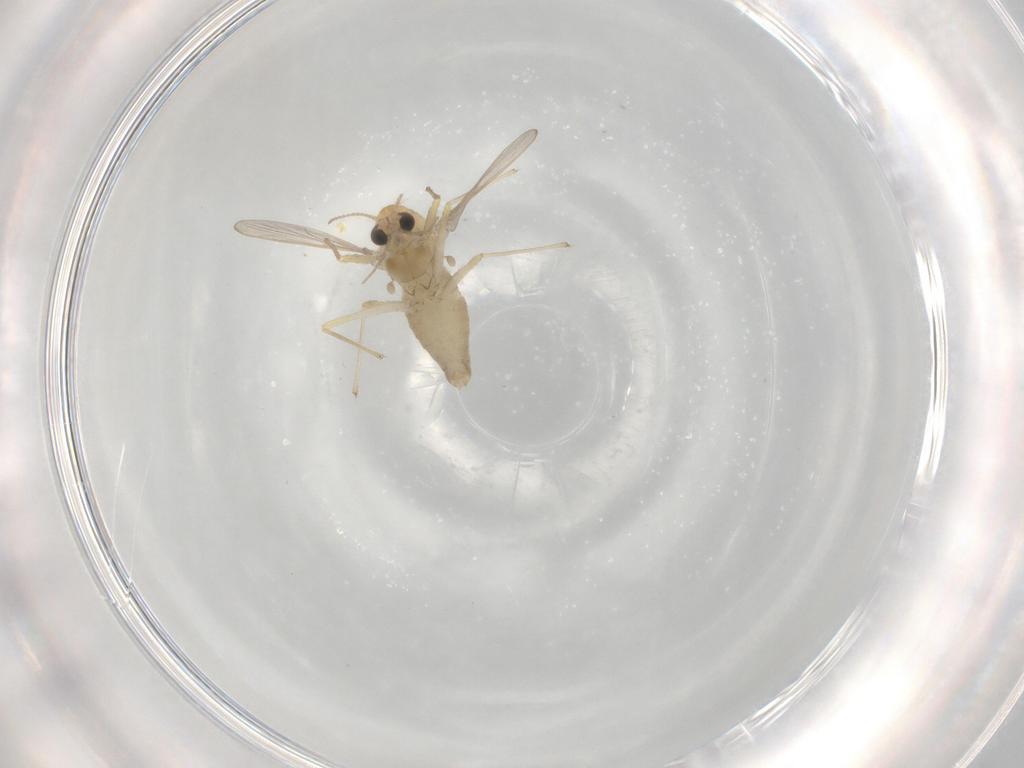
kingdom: Animalia
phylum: Arthropoda
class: Insecta
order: Diptera
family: Chironomidae
